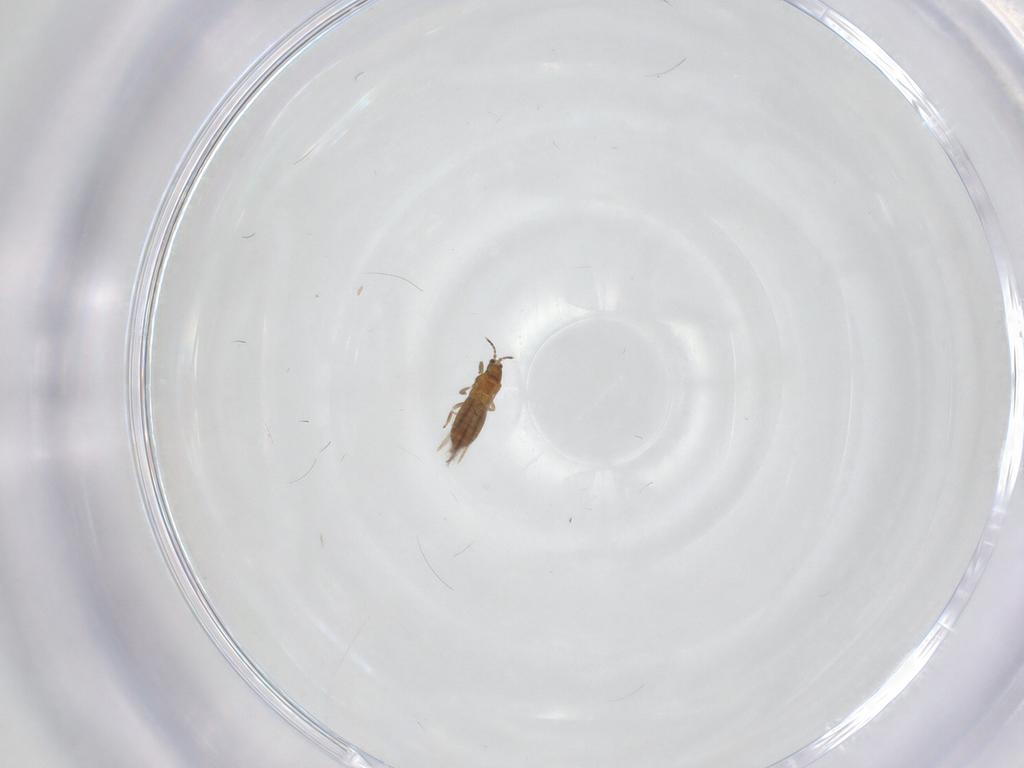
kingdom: Animalia
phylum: Arthropoda
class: Insecta
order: Thysanoptera
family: Thripidae
